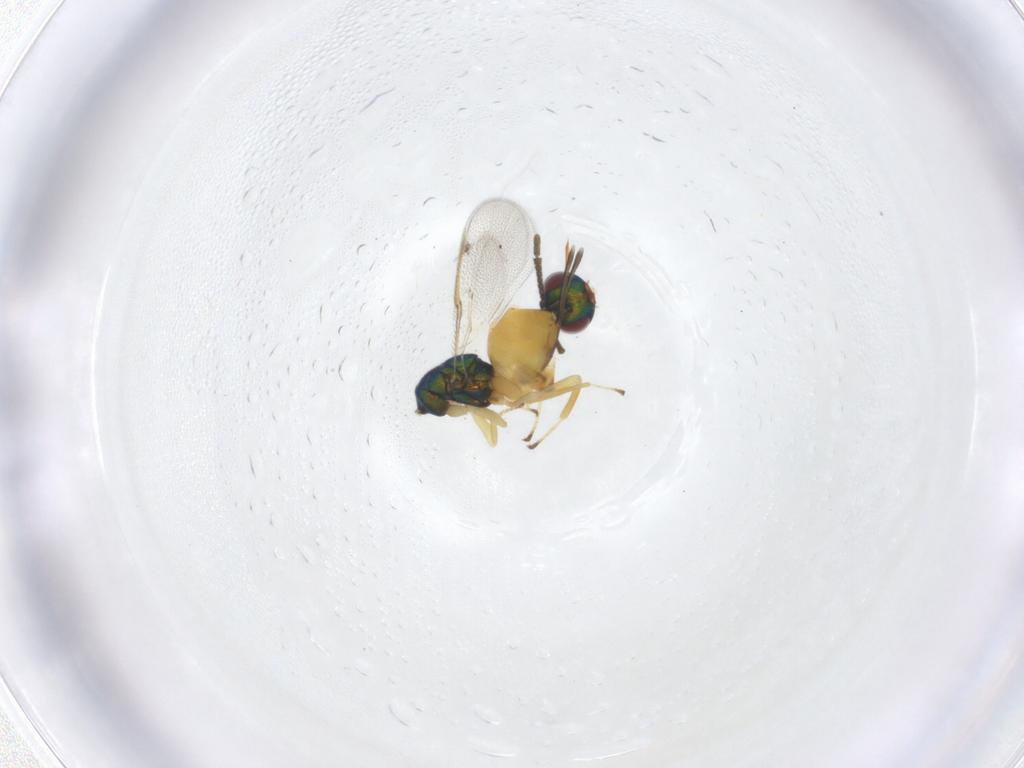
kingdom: Animalia
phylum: Arthropoda
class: Insecta
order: Hymenoptera
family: Torymidae
